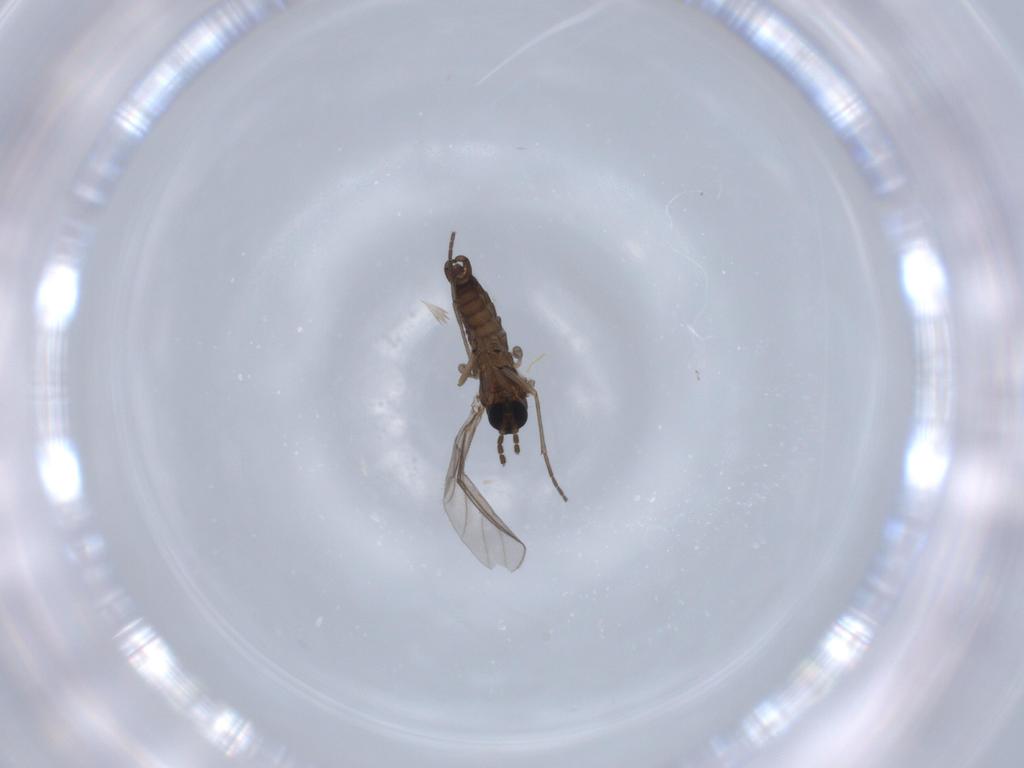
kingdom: Animalia
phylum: Arthropoda
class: Insecta
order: Diptera
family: Sciaridae
